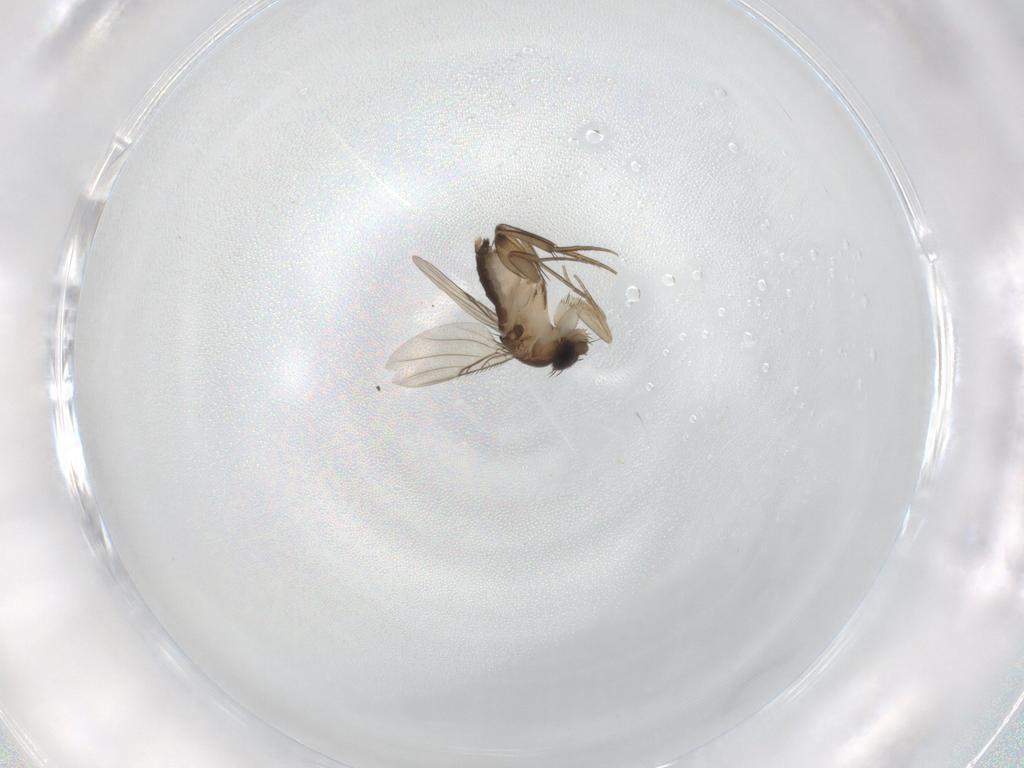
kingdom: Animalia
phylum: Arthropoda
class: Insecta
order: Diptera
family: Phoridae
